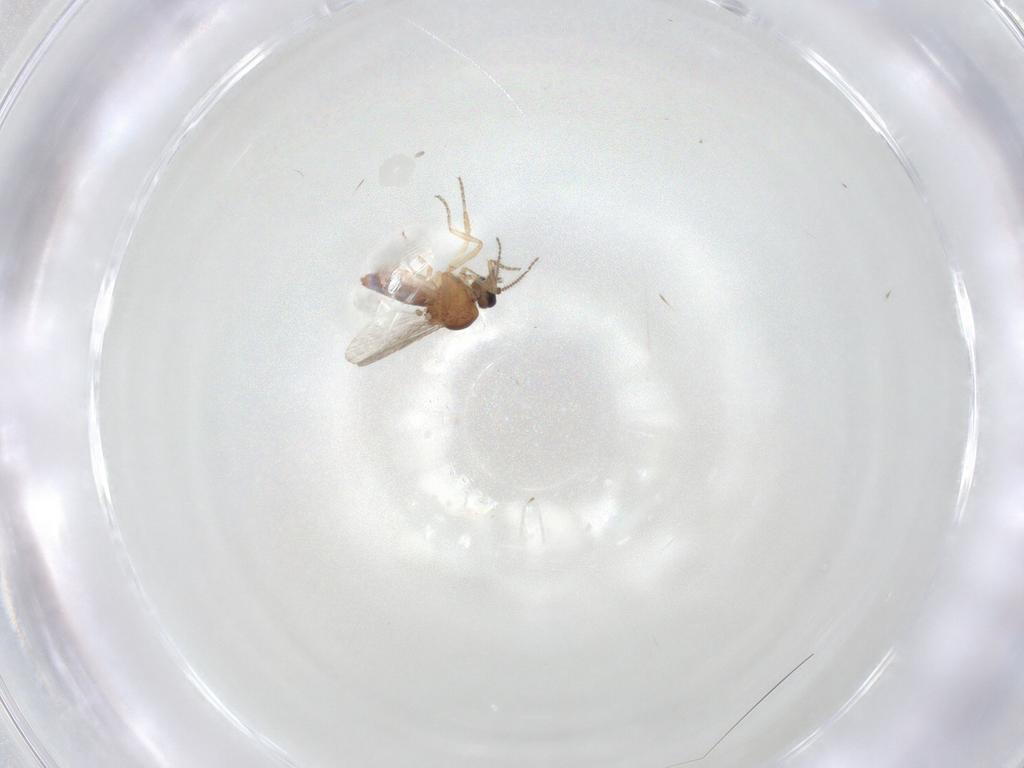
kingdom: Animalia
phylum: Arthropoda
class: Insecta
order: Diptera
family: Ceratopogonidae
